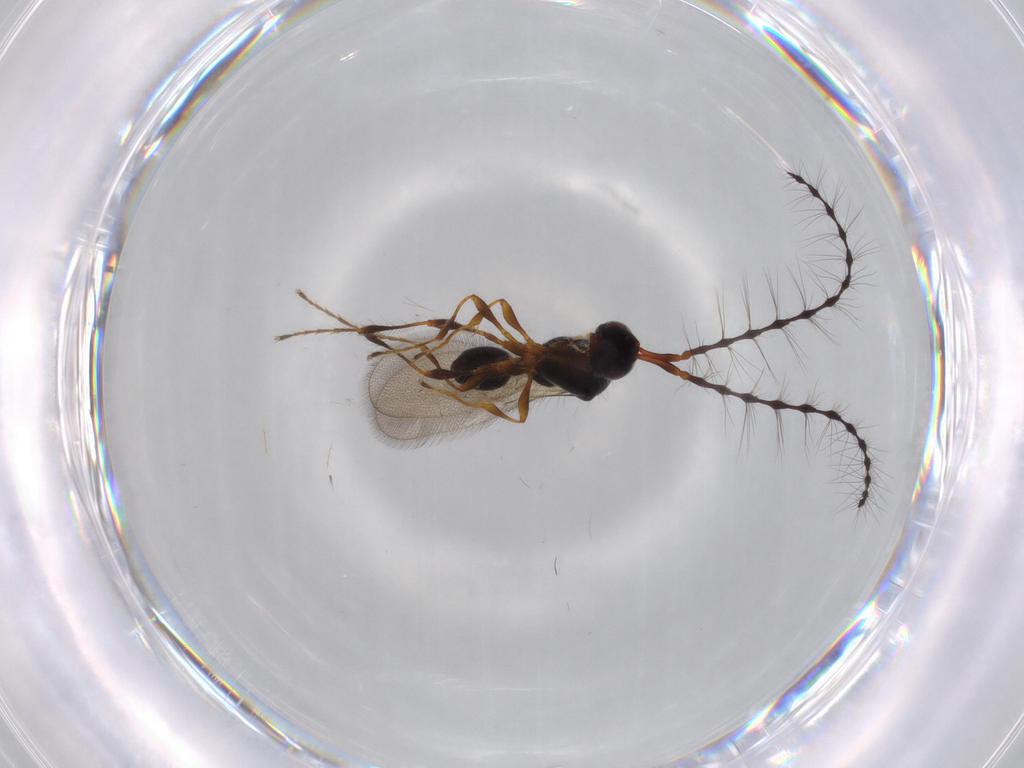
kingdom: Animalia
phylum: Arthropoda
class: Insecta
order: Hymenoptera
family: Diapriidae
